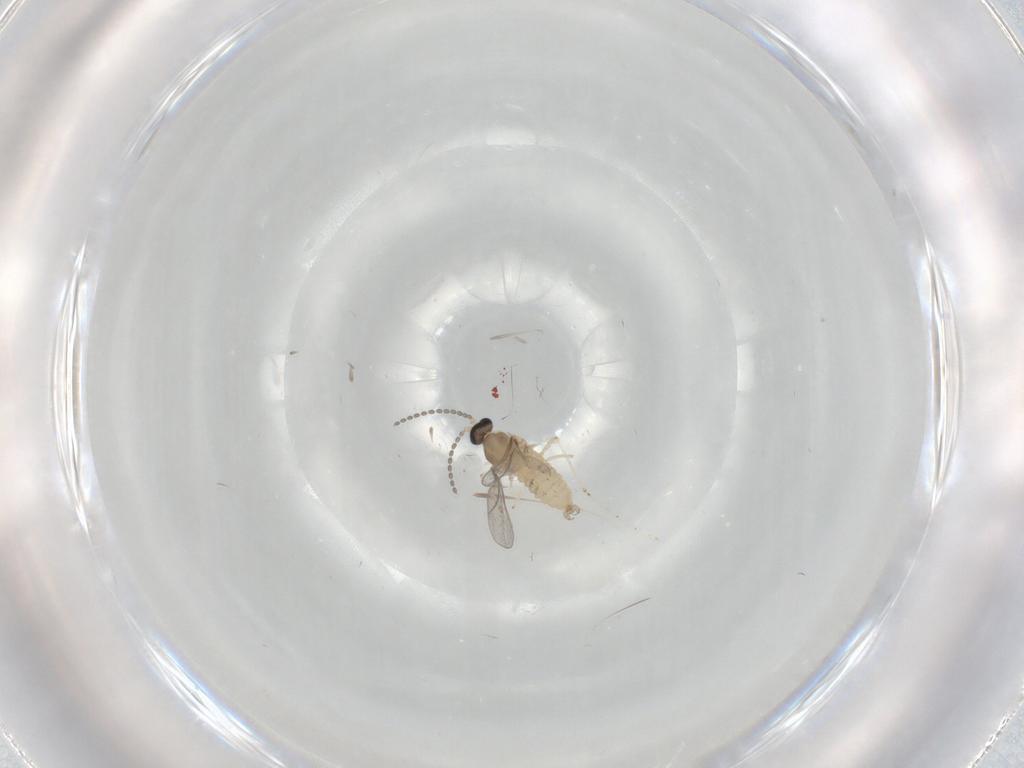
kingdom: Animalia
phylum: Arthropoda
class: Insecta
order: Diptera
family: Cecidomyiidae
